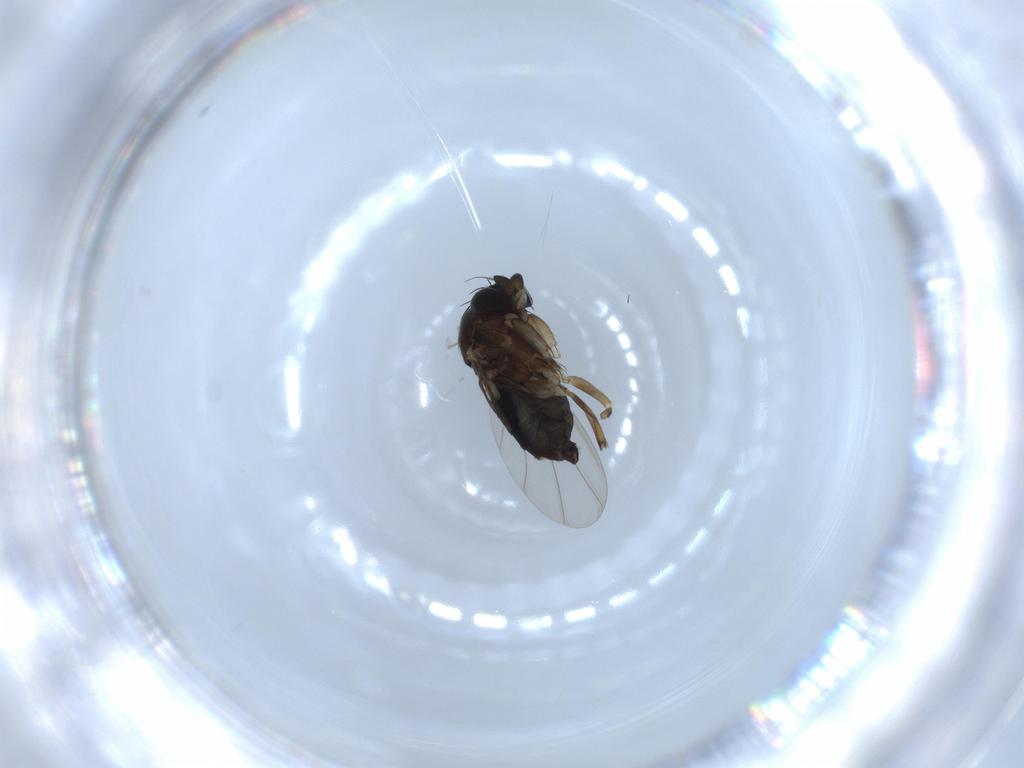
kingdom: Animalia
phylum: Arthropoda
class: Insecta
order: Diptera
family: Phoridae
